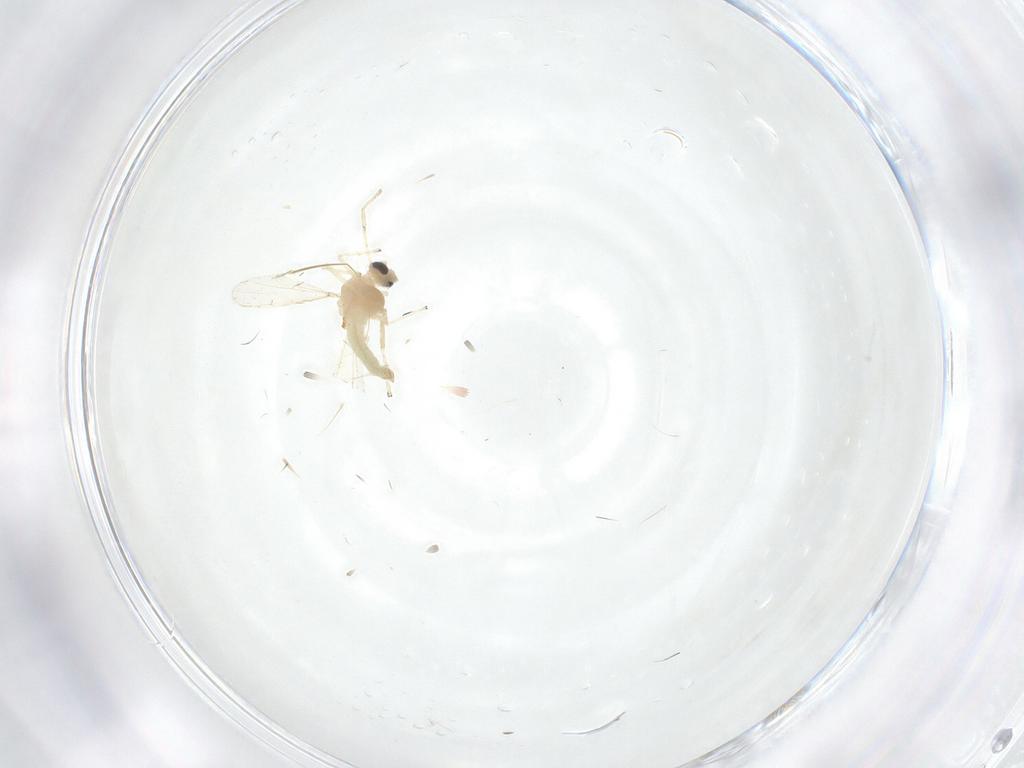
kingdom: Animalia
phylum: Arthropoda
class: Insecta
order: Diptera
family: Chironomidae
